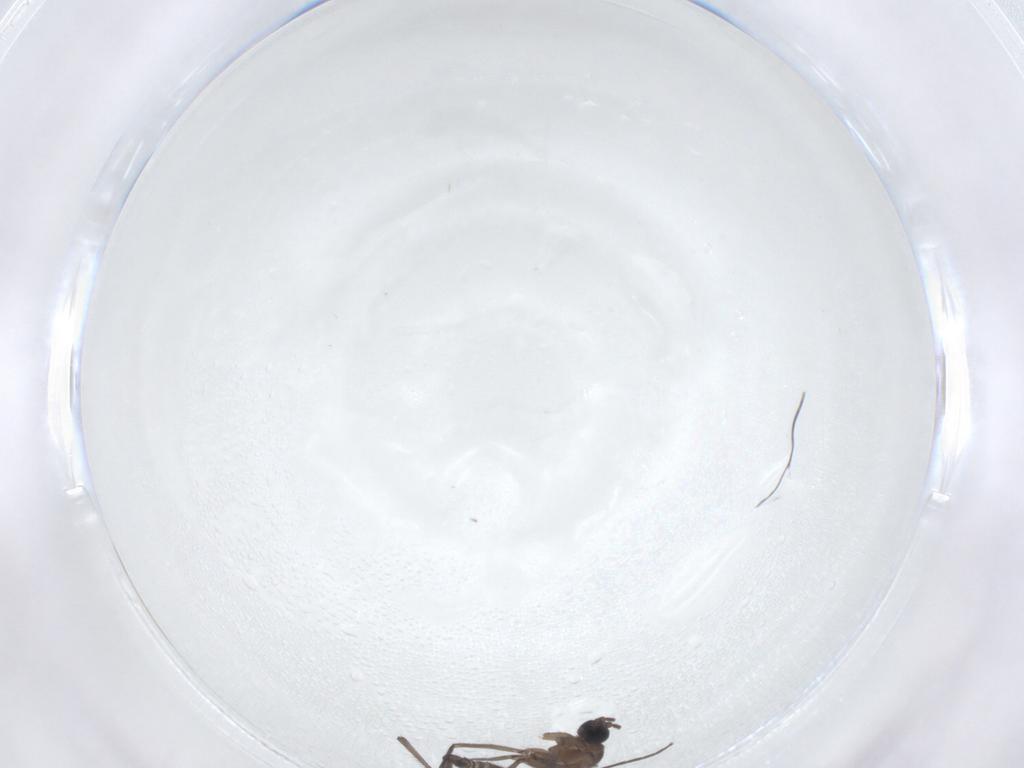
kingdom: Animalia
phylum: Arthropoda
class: Insecta
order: Diptera
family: Sciaridae
